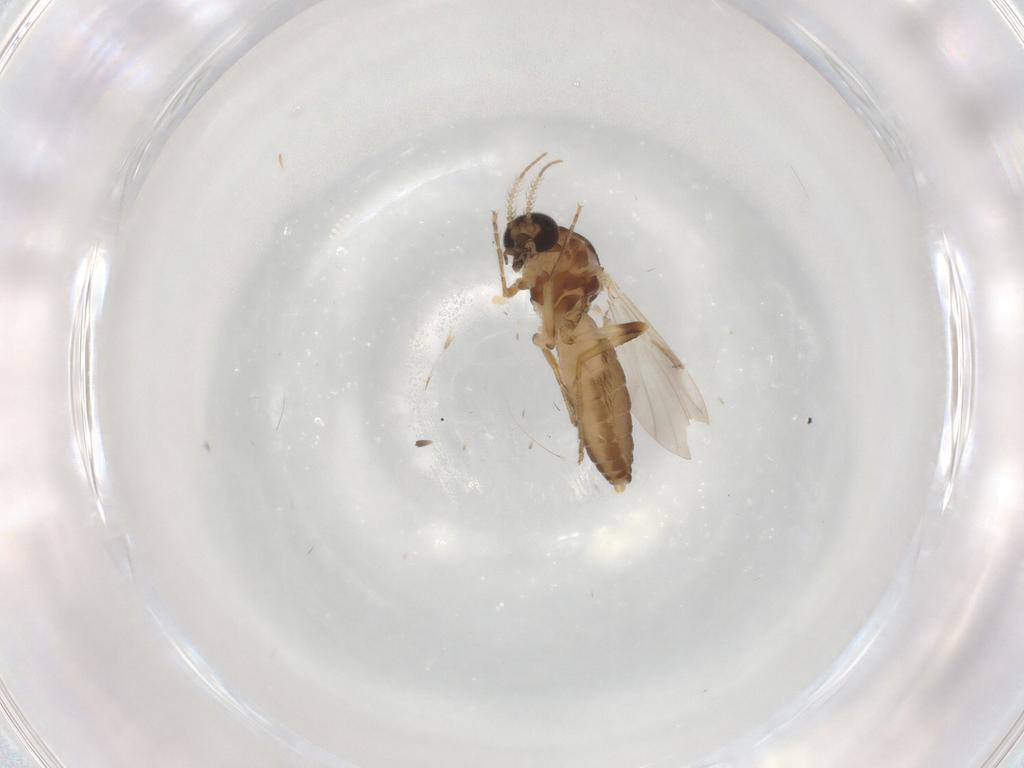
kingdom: Animalia
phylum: Arthropoda
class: Insecta
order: Diptera
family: Ceratopogonidae
